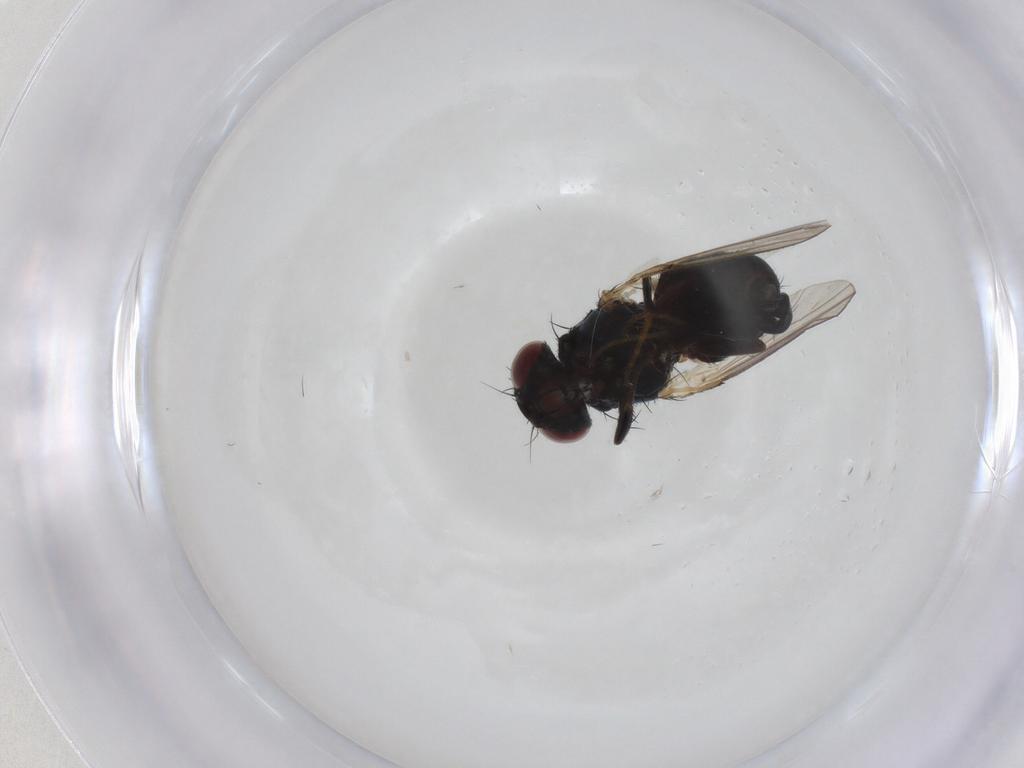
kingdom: Animalia
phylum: Arthropoda
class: Insecta
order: Diptera
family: Carnidae
